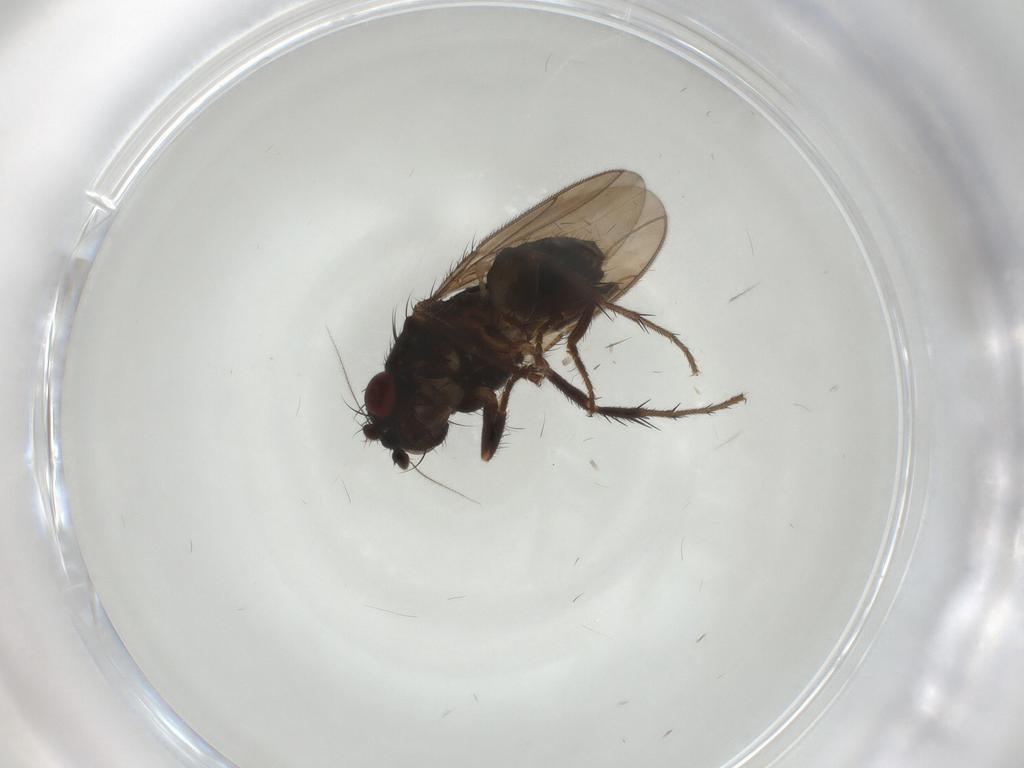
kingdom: Animalia
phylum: Arthropoda
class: Insecta
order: Diptera
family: Sphaeroceridae
